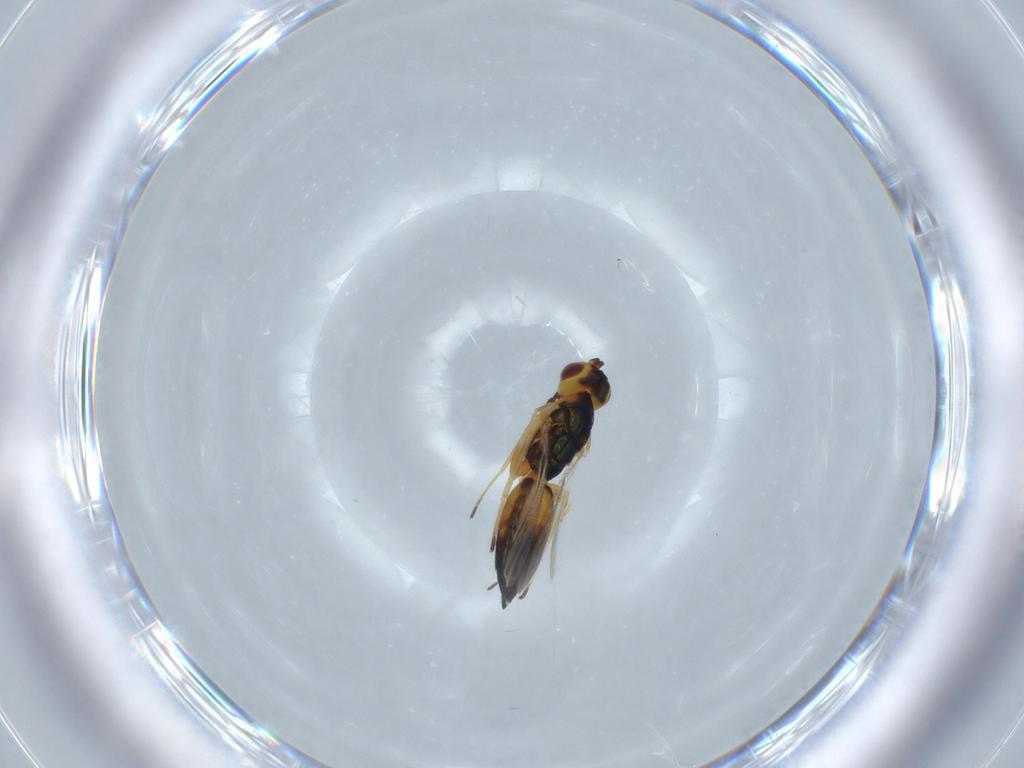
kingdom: Animalia
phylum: Arthropoda
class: Insecta
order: Hymenoptera
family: Eulophidae
